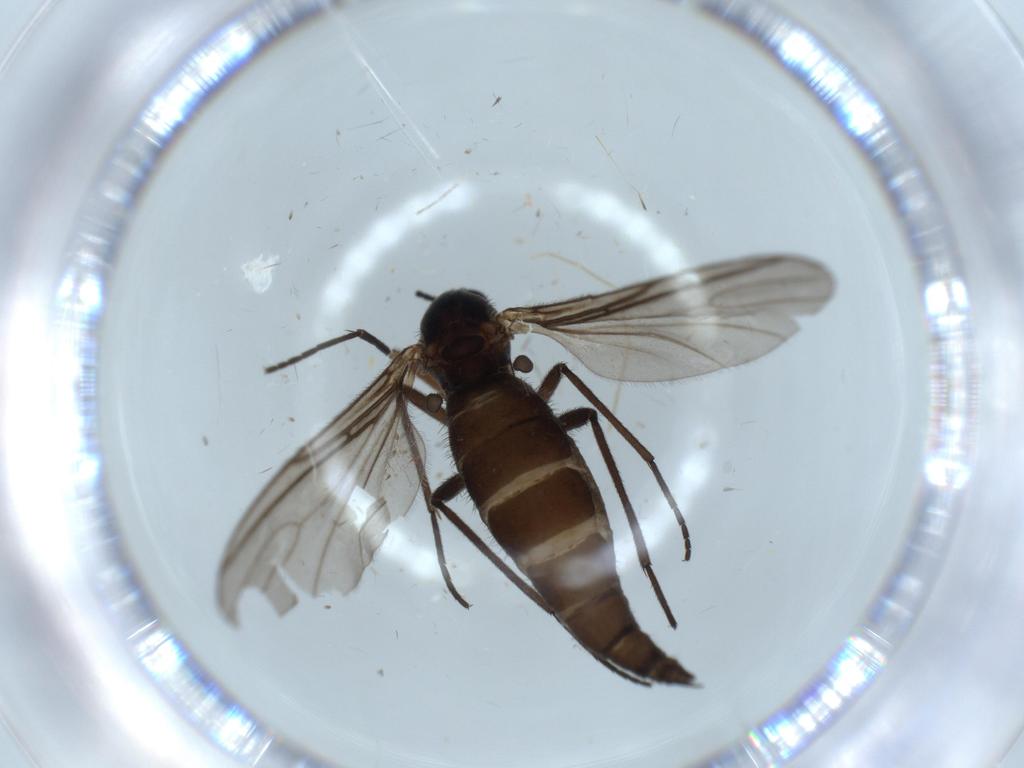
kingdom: Animalia
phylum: Arthropoda
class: Insecta
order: Diptera
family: Sciaridae
